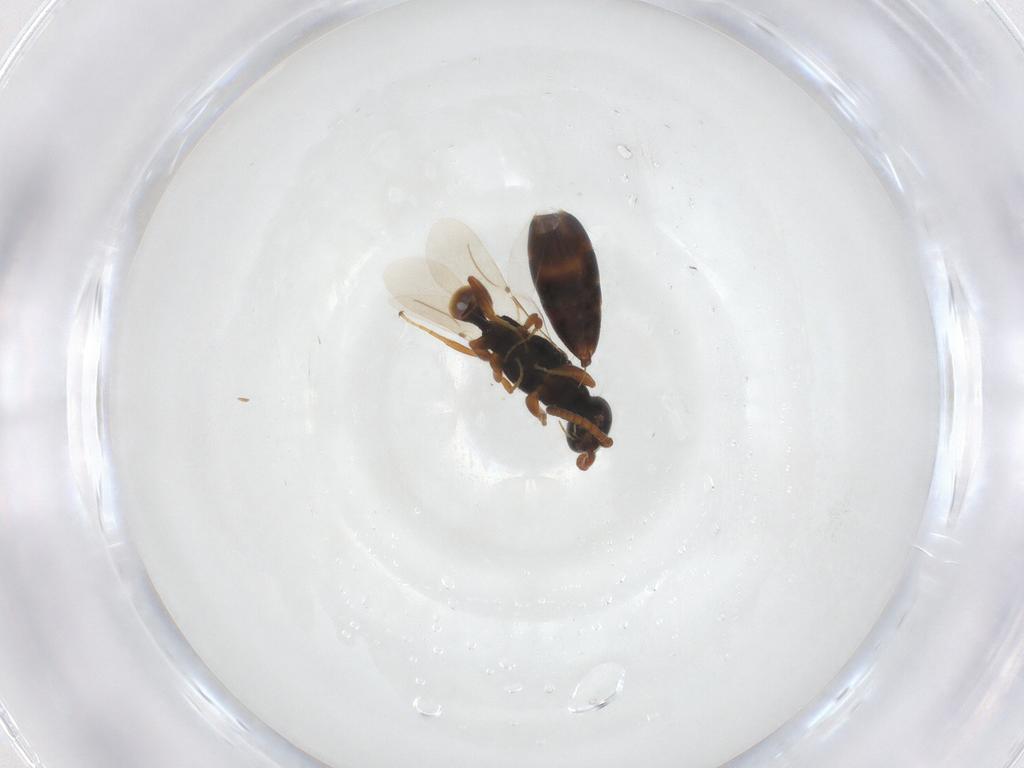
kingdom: Animalia
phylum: Arthropoda
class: Insecta
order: Hymenoptera
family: Bethylidae
